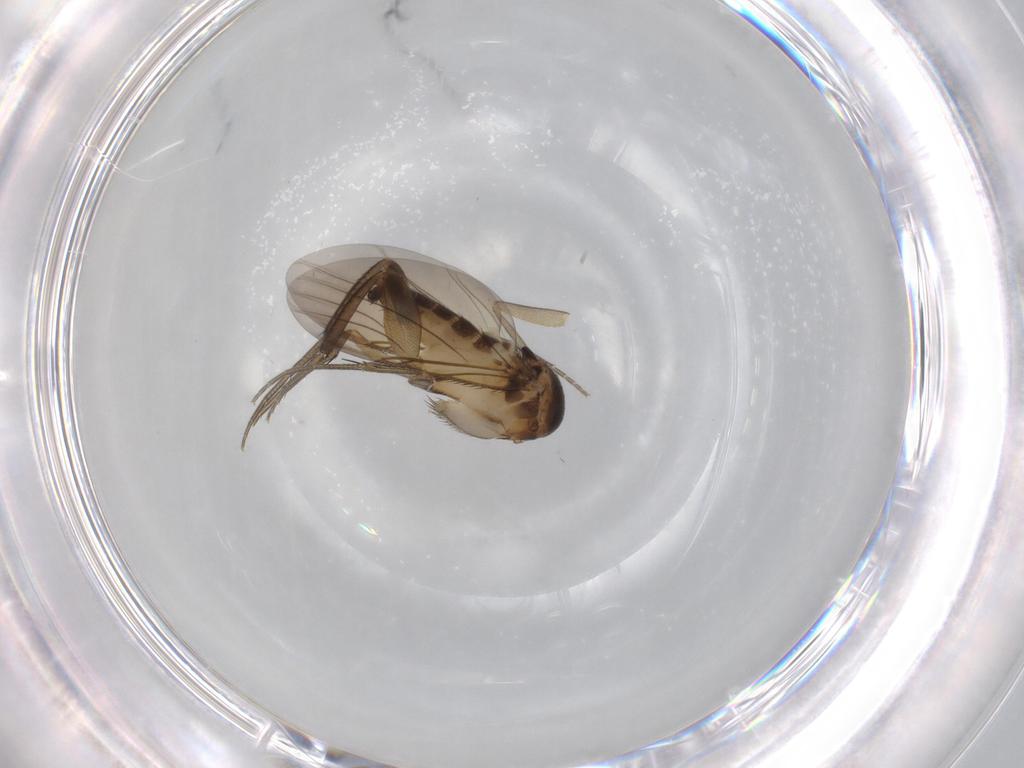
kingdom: Animalia
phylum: Arthropoda
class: Insecta
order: Diptera
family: Phoridae
